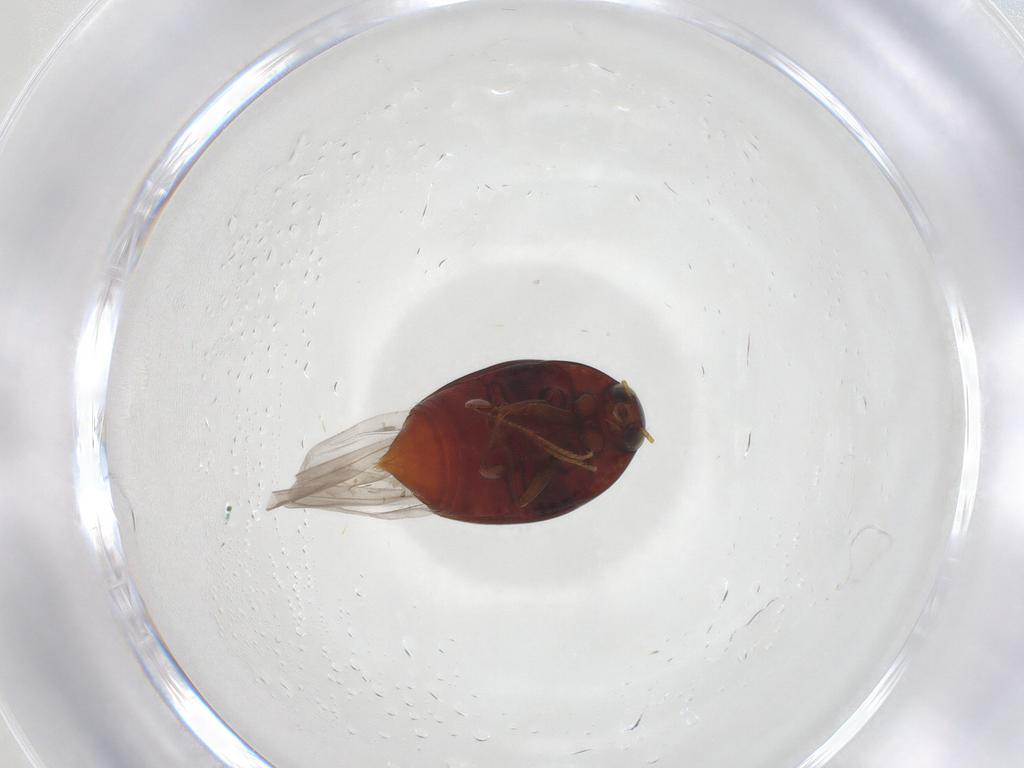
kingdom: Animalia
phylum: Arthropoda
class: Insecta
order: Coleoptera
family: Staphylinidae
